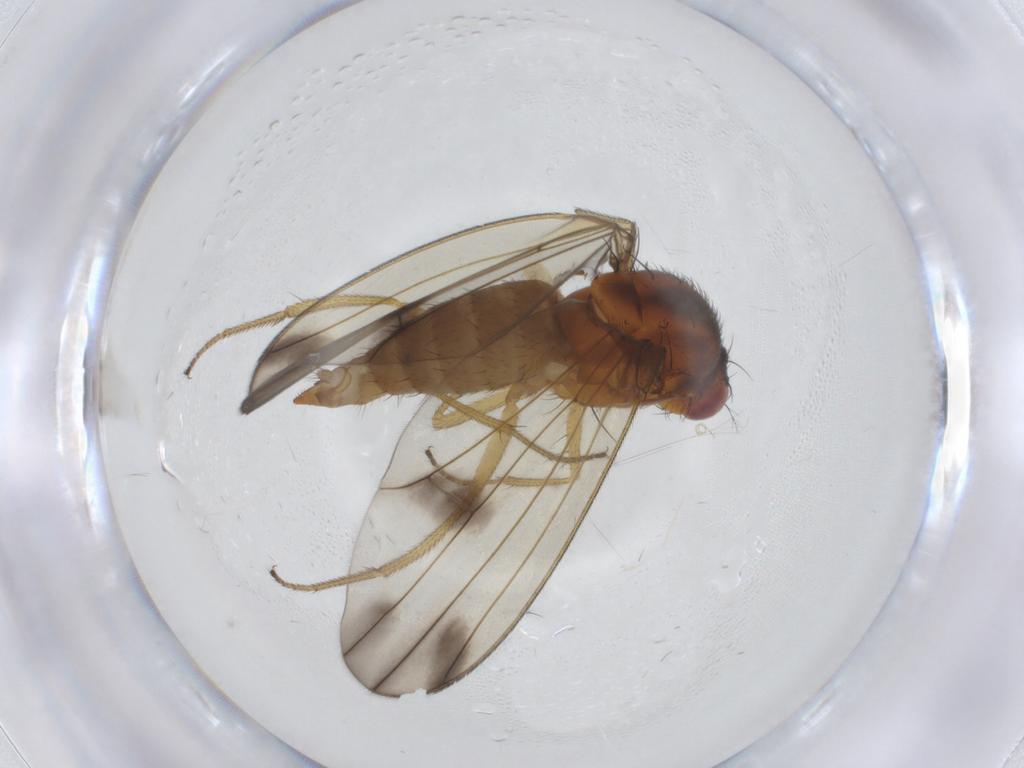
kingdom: Animalia
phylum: Arthropoda
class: Insecta
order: Diptera
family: Drosophilidae
